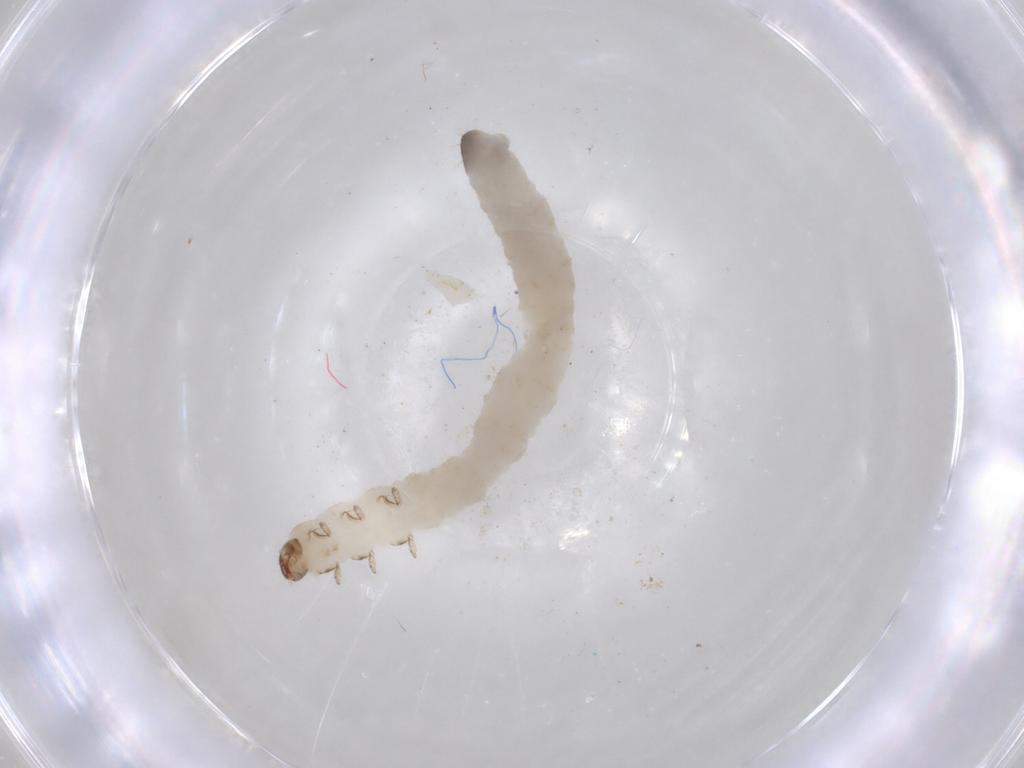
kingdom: Animalia
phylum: Arthropoda
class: Insecta
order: Coleoptera
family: Chrysomelidae
